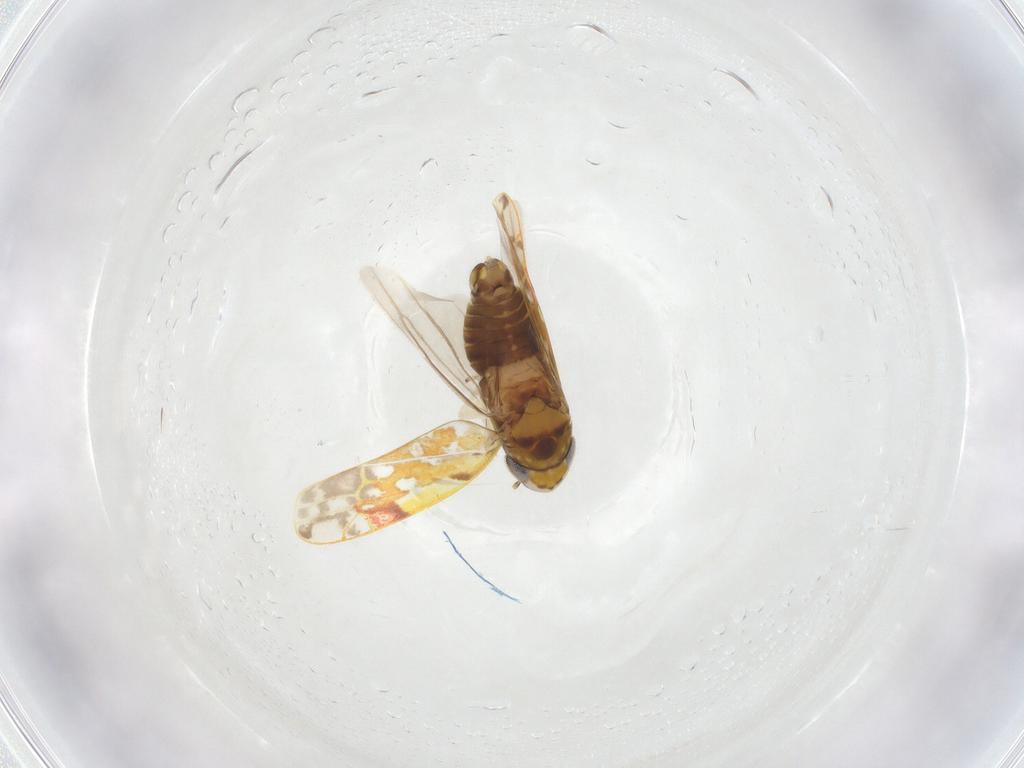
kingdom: Animalia
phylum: Arthropoda
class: Insecta
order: Hemiptera
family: Cicadellidae
